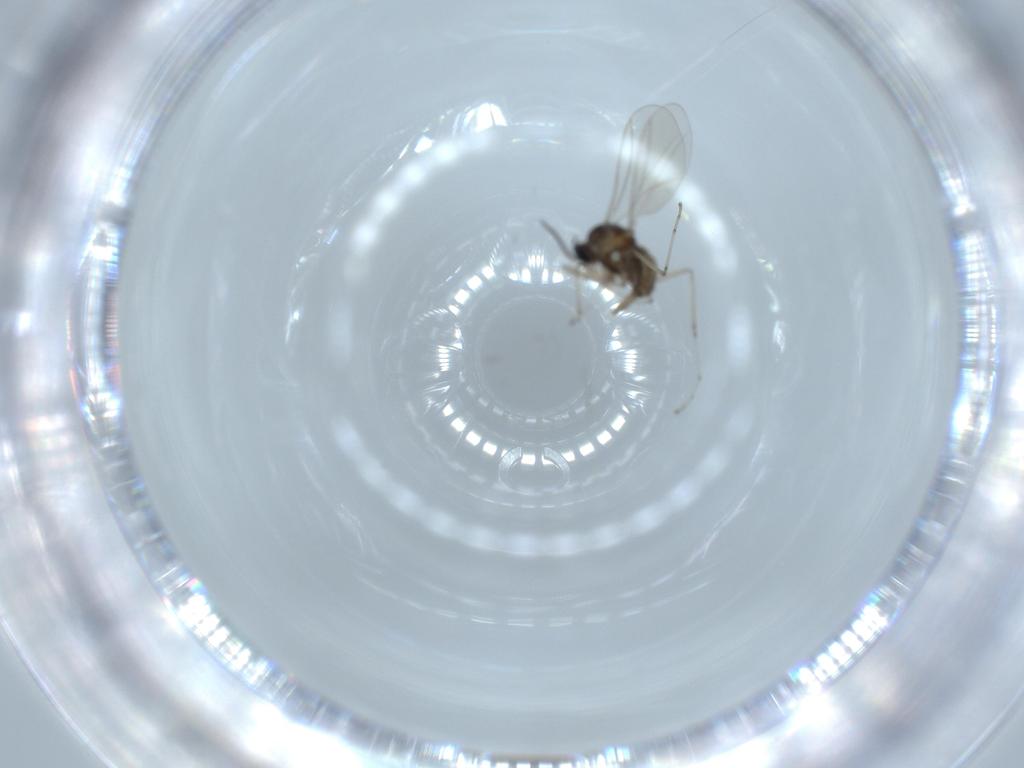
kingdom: Animalia
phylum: Arthropoda
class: Insecta
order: Diptera
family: Cecidomyiidae
